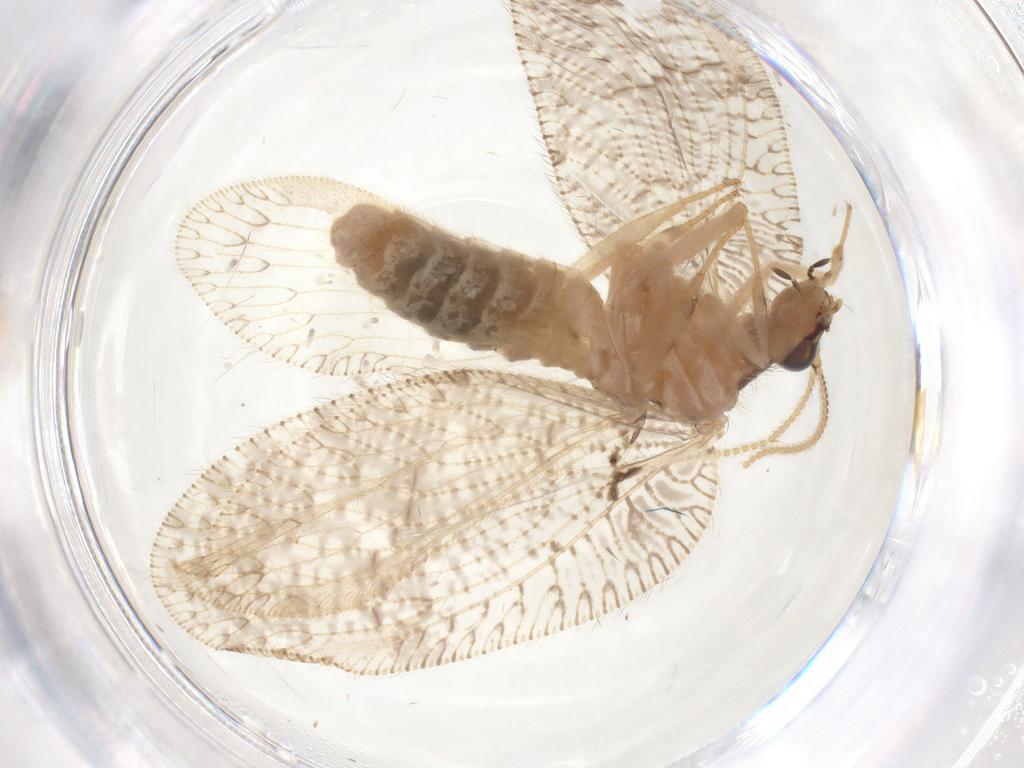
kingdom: Animalia
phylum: Arthropoda
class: Insecta
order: Neuroptera
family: Hemerobiidae
